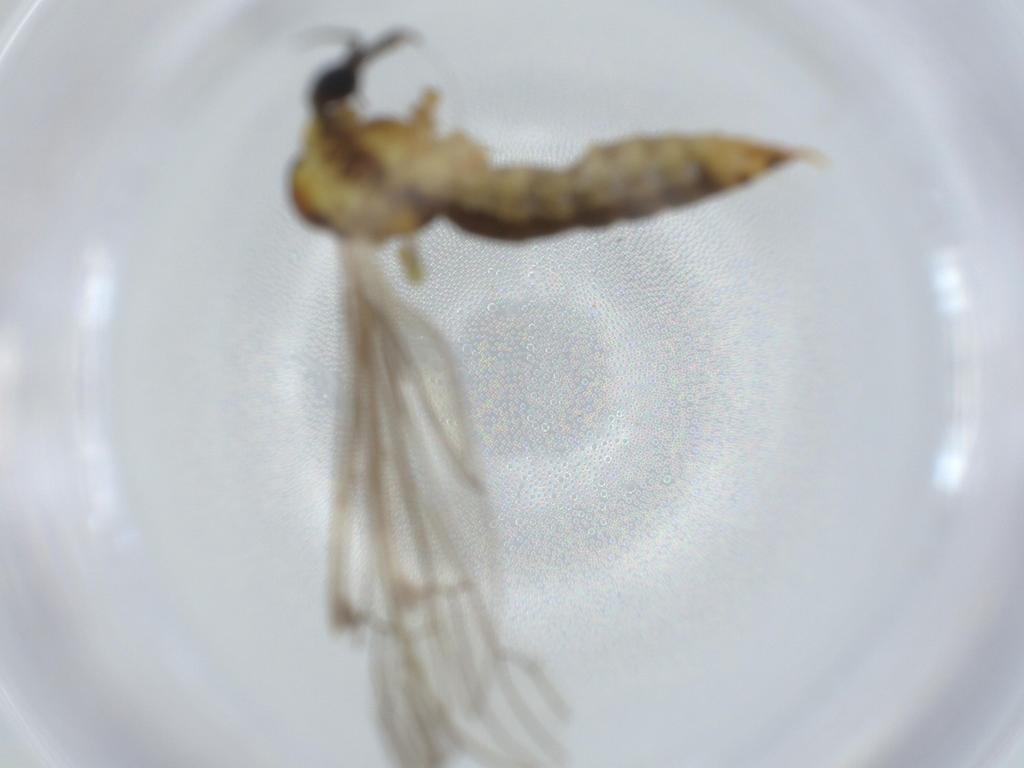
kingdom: Animalia
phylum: Arthropoda
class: Insecta
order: Diptera
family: Limoniidae
